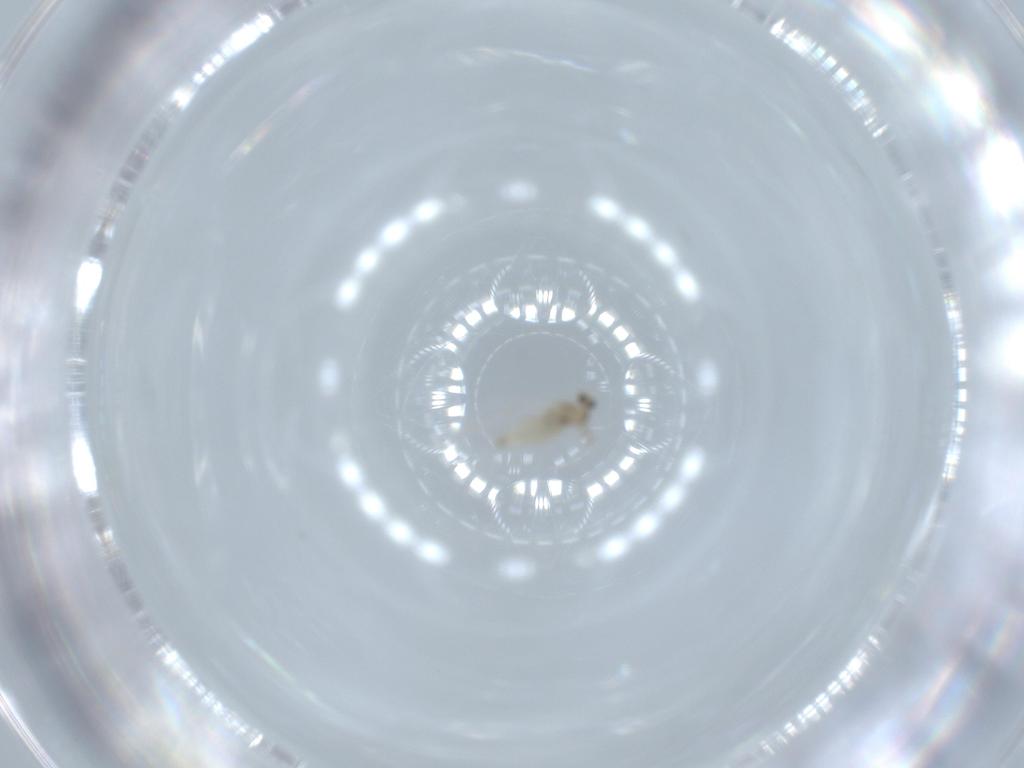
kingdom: Animalia
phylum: Arthropoda
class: Insecta
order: Diptera
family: Cecidomyiidae
